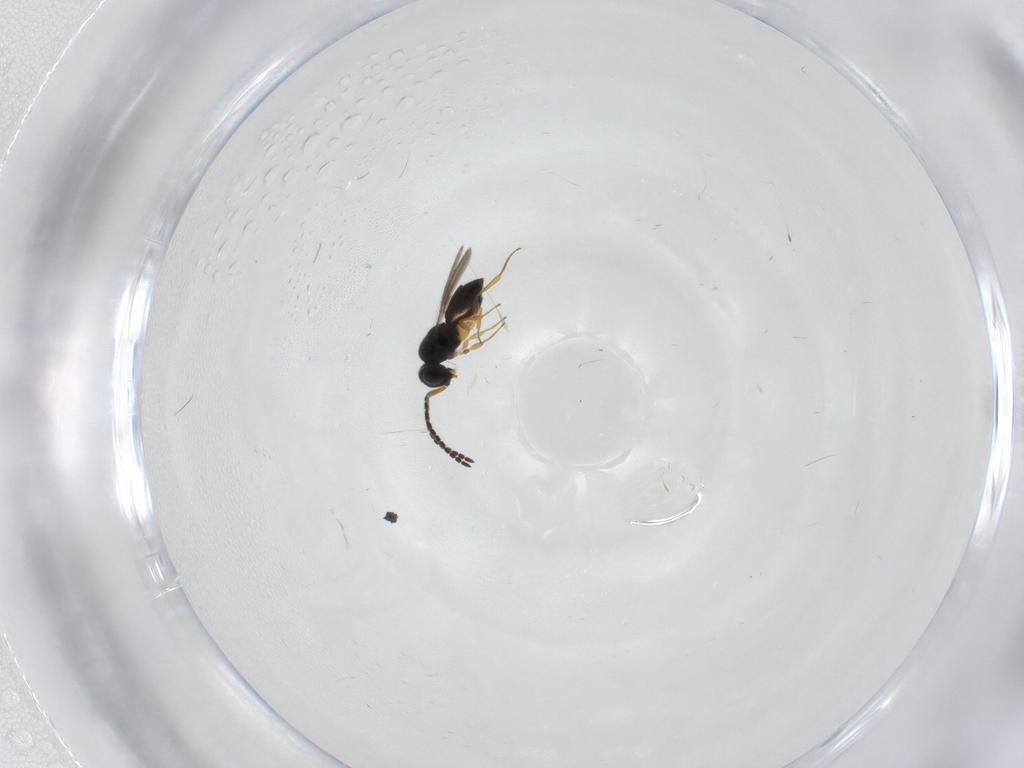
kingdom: Animalia
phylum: Arthropoda
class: Insecta
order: Hymenoptera
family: Scelionidae
